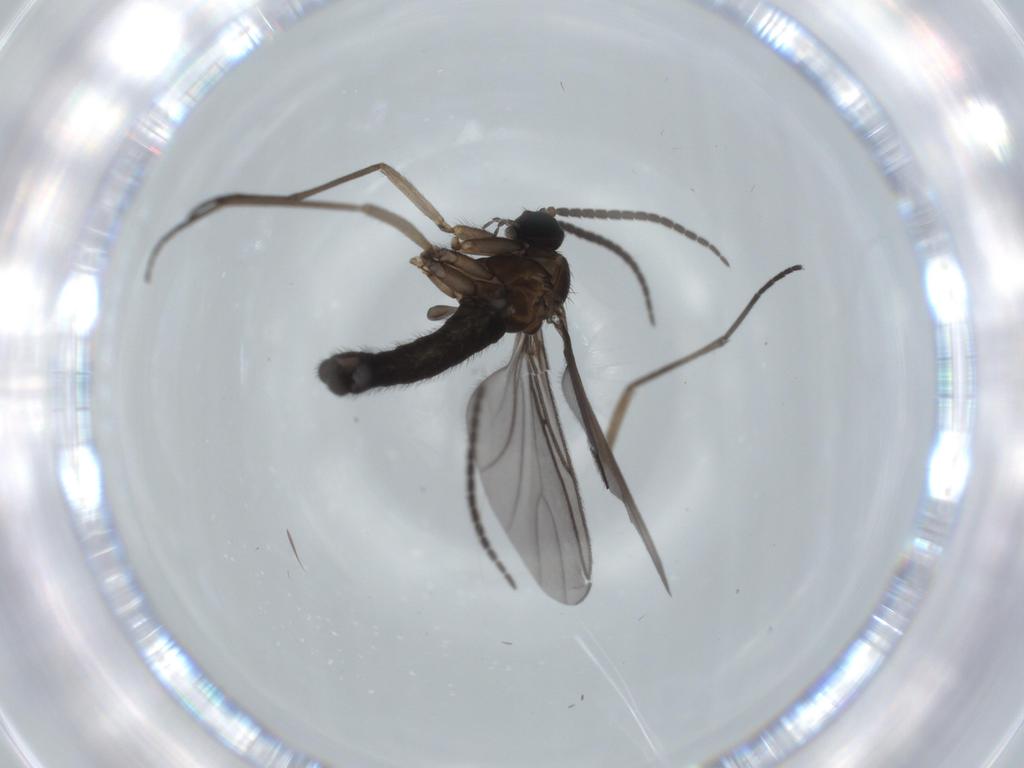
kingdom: Animalia
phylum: Arthropoda
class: Insecta
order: Diptera
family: Sciaridae
